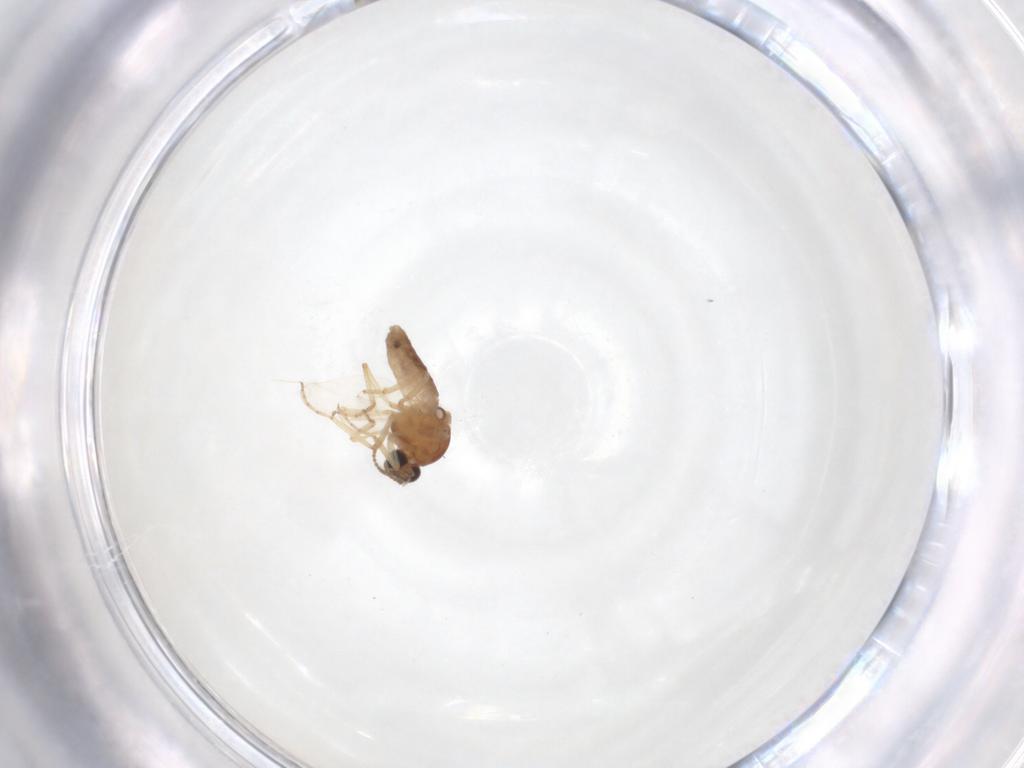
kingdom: Animalia
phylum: Arthropoda
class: Insecta
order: Diptera
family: Ceratopogonidae
